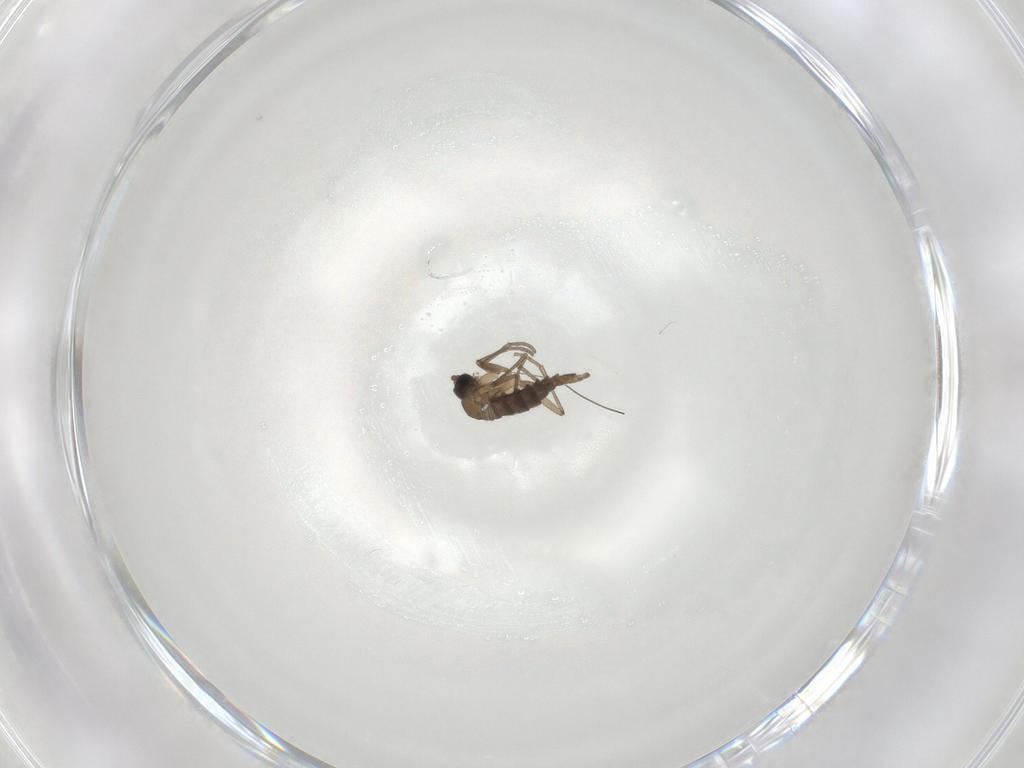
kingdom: Animalia
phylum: Arthropoda
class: Insecta
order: Diptera
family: Sciaridae
